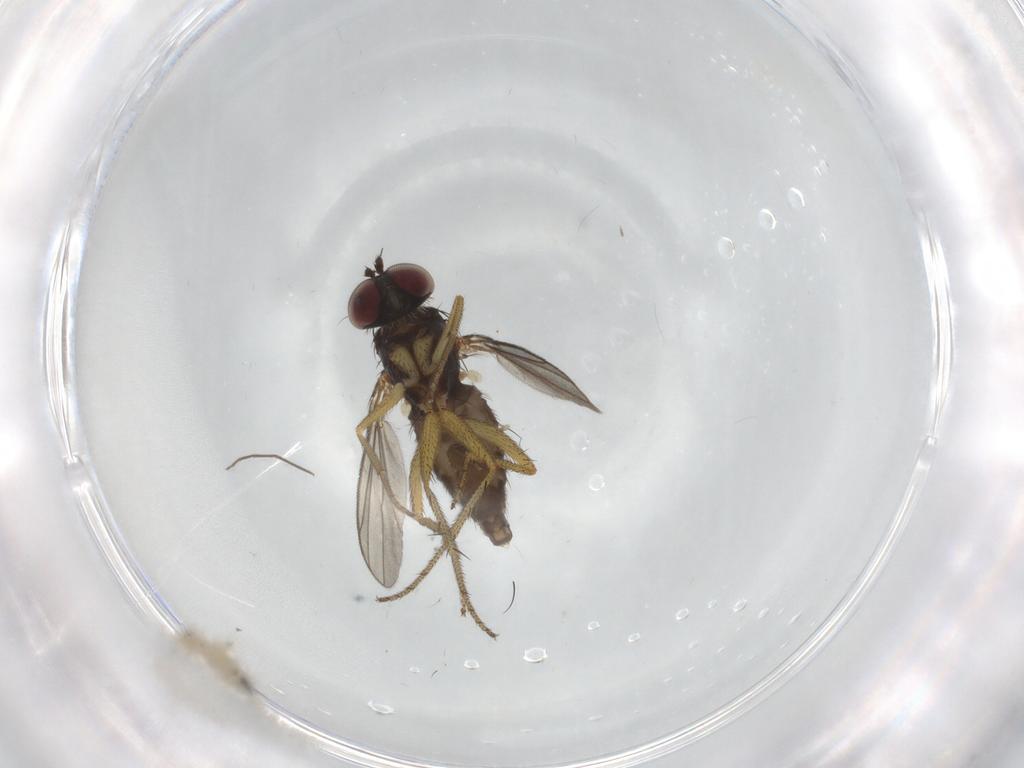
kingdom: Animalia
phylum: Arthropoda
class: Insecta
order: Diptera
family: Dolichopodidae
